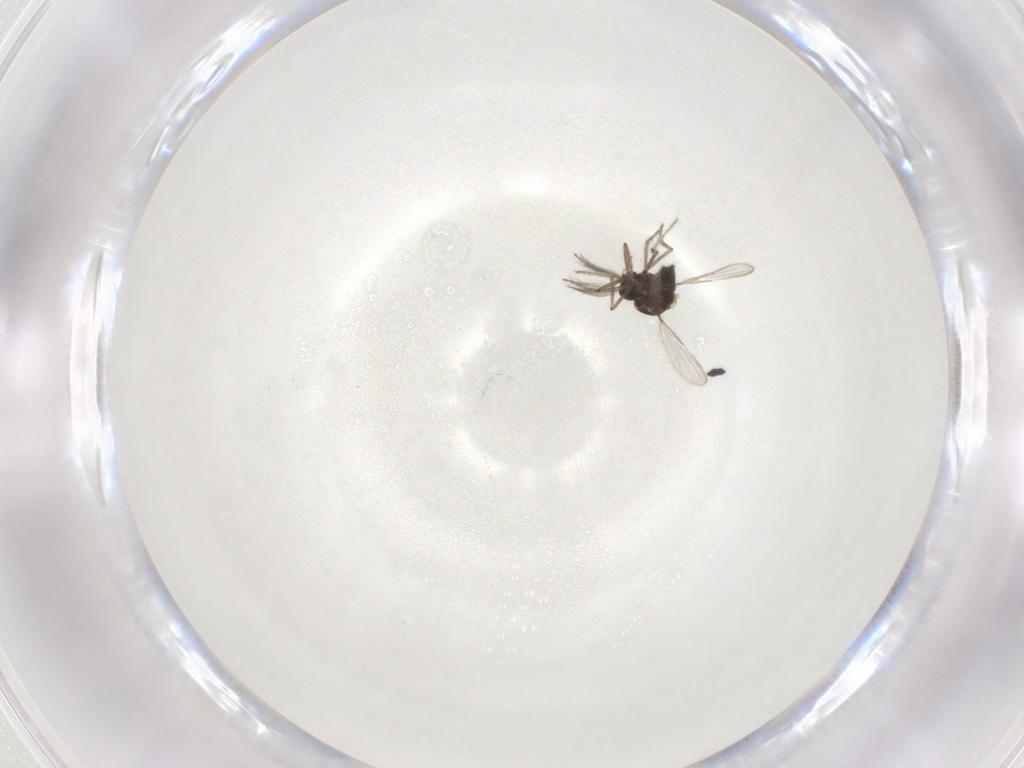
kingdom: Animalia
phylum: Arthropoda
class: Insecta
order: Diptera
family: Ceratopogonidae
